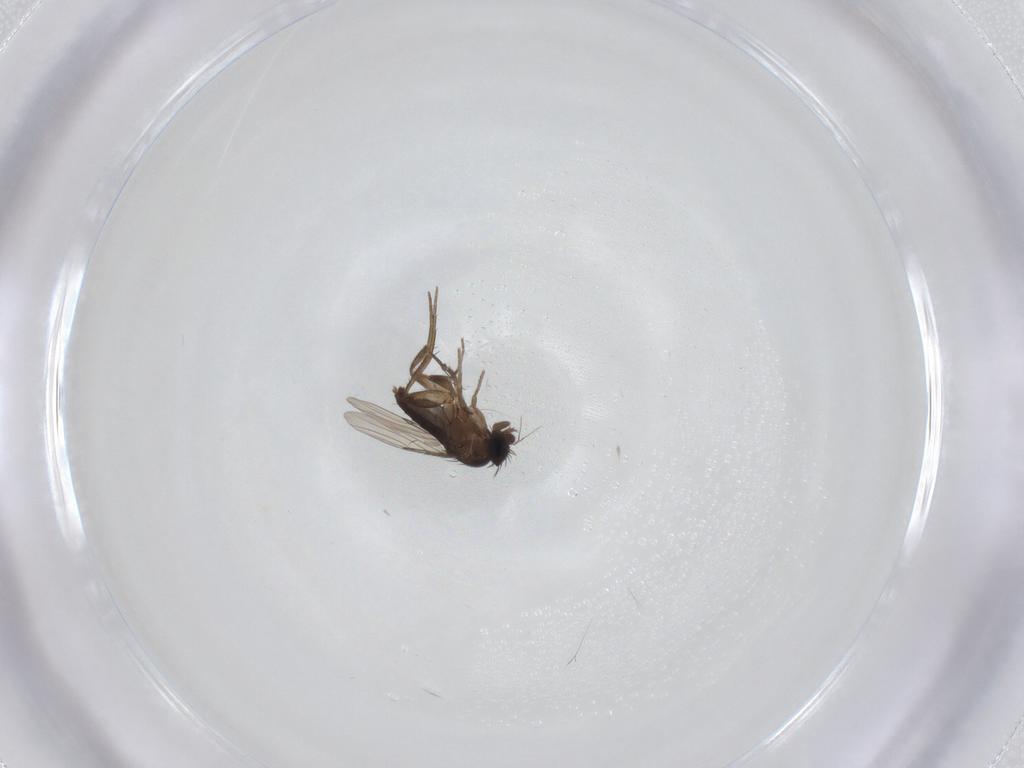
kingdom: Animalia
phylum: Arthropoda
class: Insecta
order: Diptera
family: Phoridae
